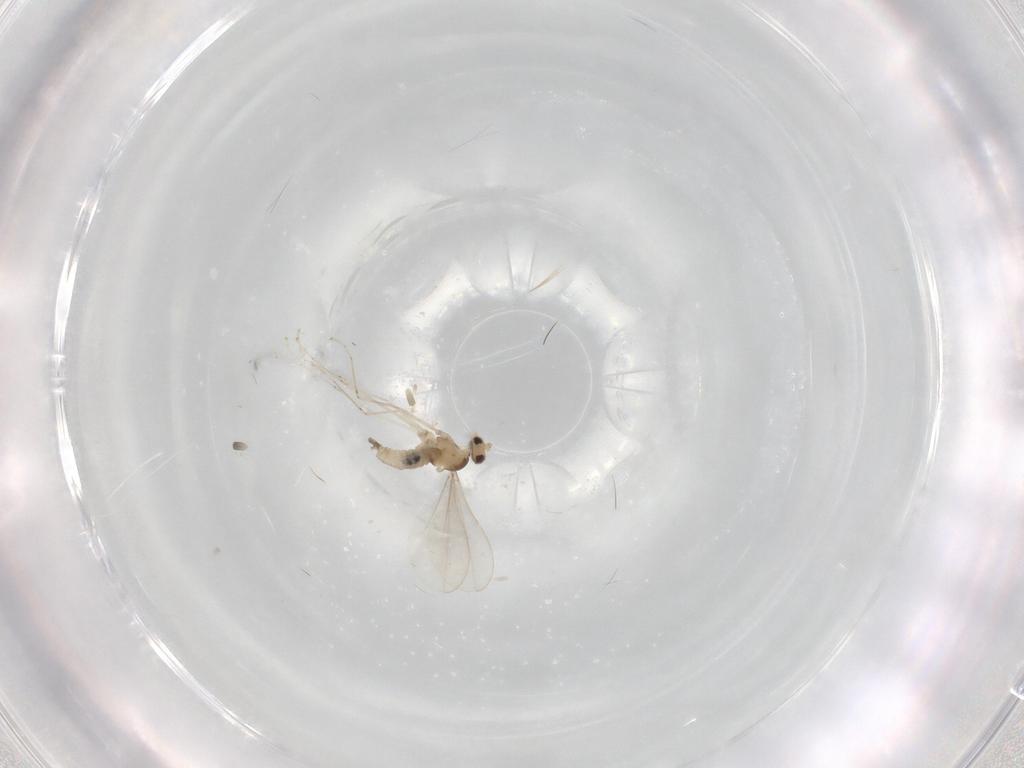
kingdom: Animalia
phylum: Arthropoda
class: Insecta
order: Diptera
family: Cecidomyiidae
